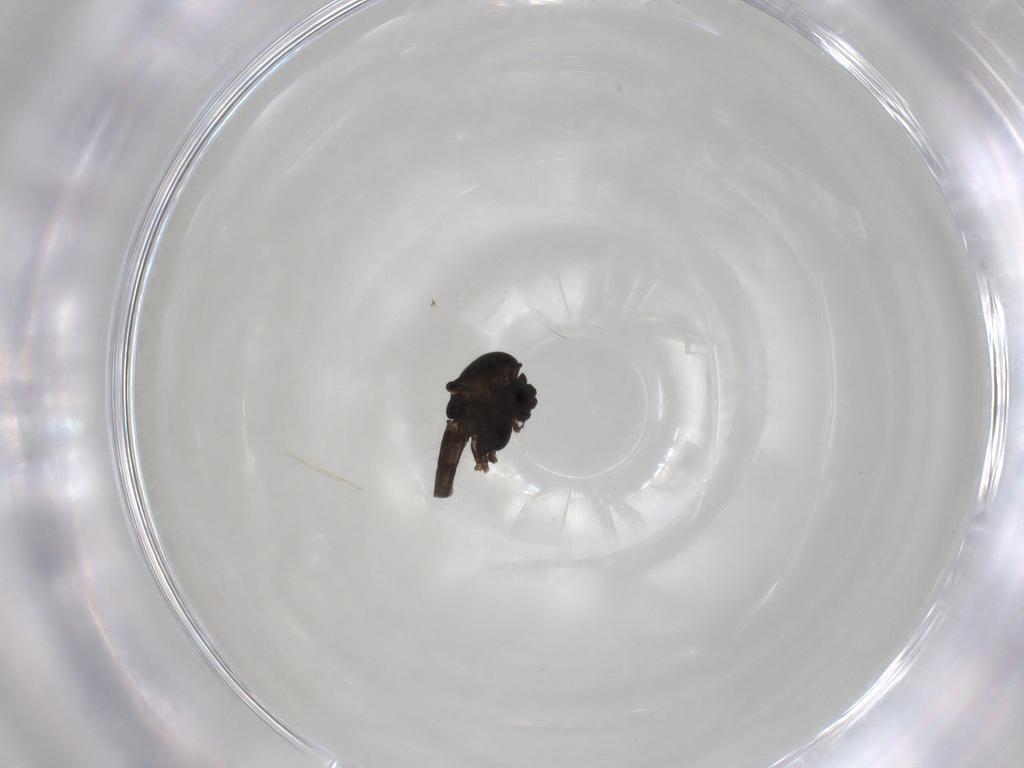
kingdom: Animalia
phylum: Arthropoda
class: Insecta
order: Diptera
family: Chironomidae
